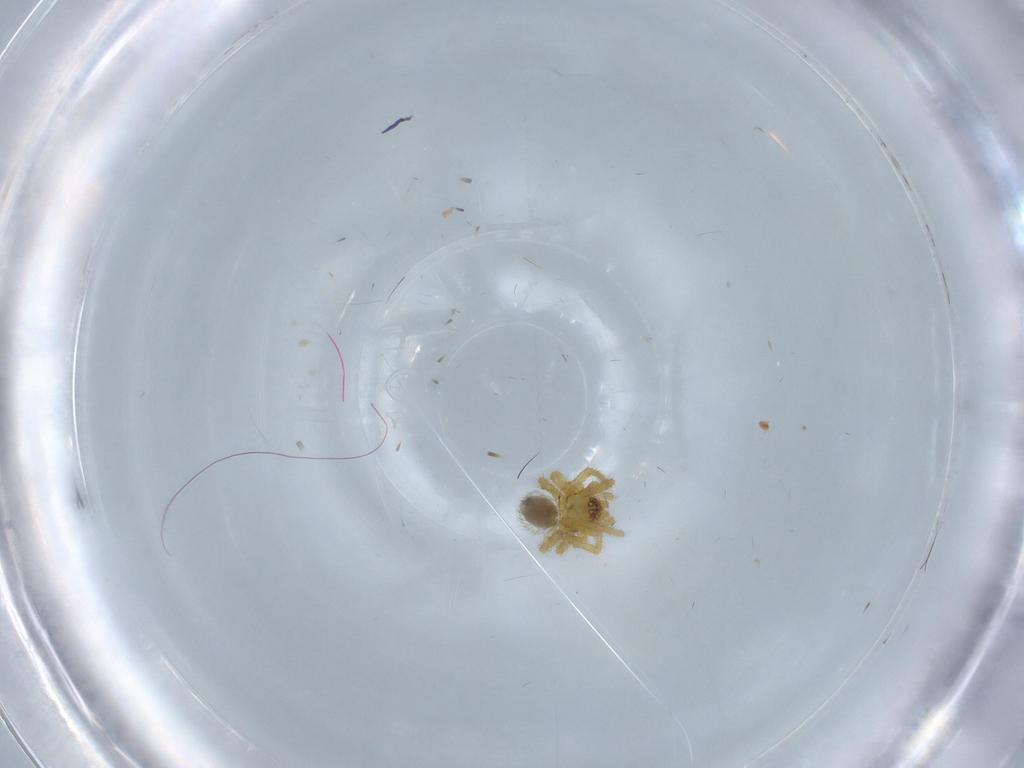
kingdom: Animalia
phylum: Arthropoda
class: Arachnida
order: Araneae
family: Theridiidae
